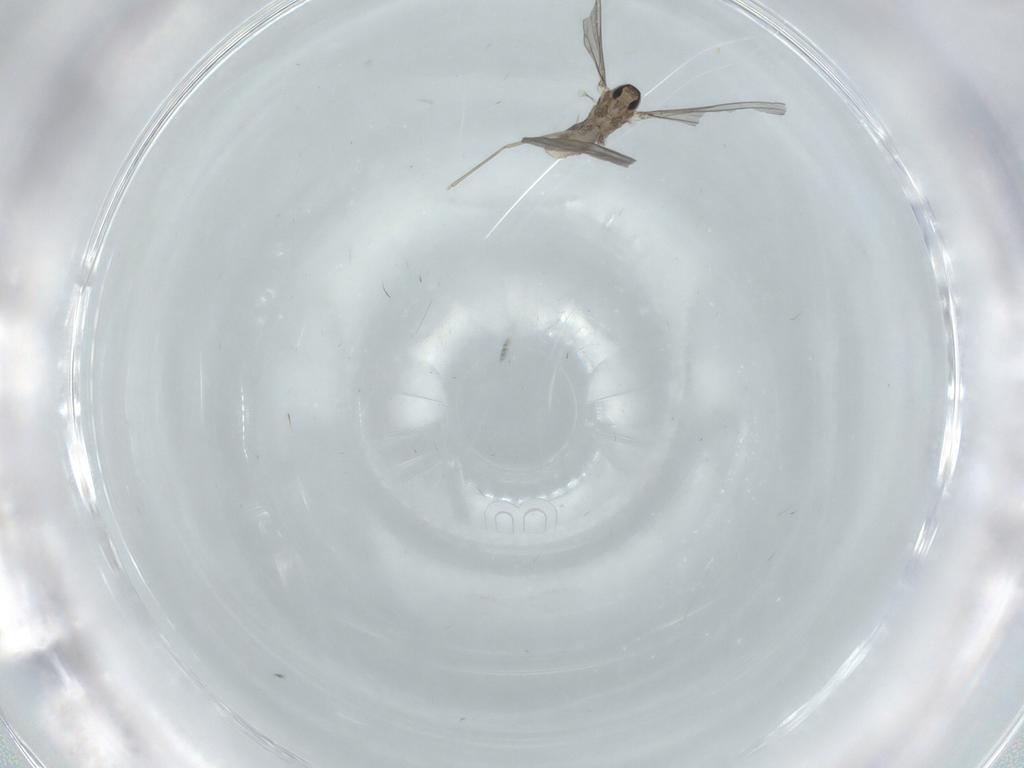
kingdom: Animalia
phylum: Arthropoda
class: Insecta
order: Diptera
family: Cecidomyiidae
